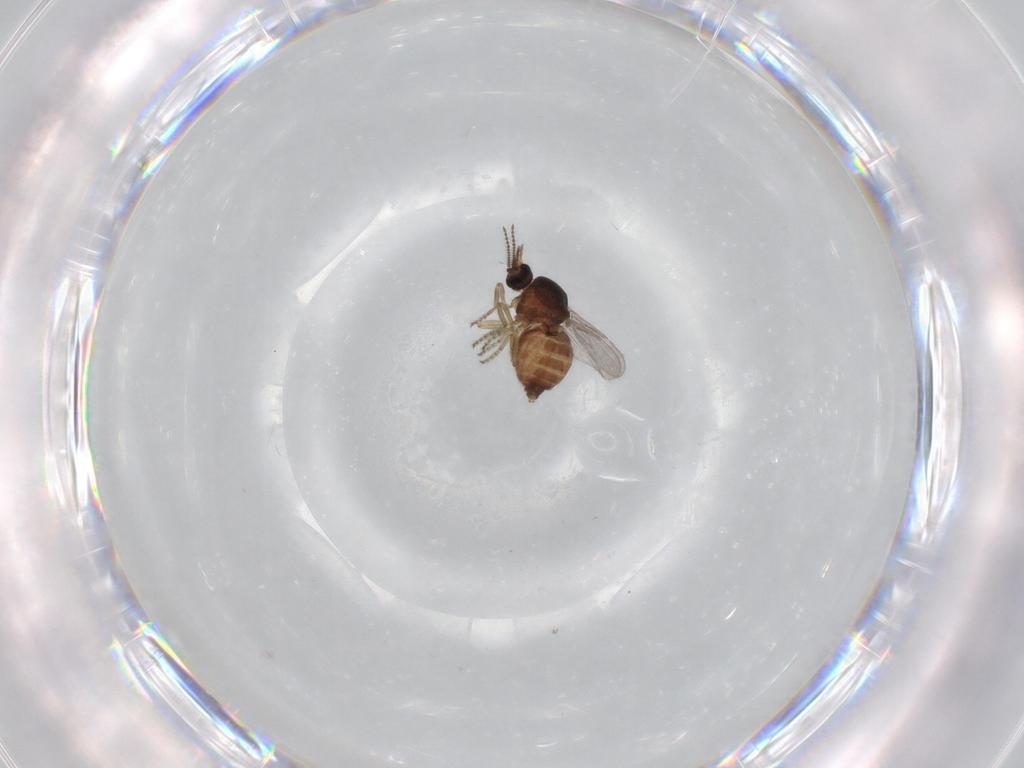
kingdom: Animalia
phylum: Arthropoda
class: Insecta
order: Diptera
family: Ceratopogonidae
